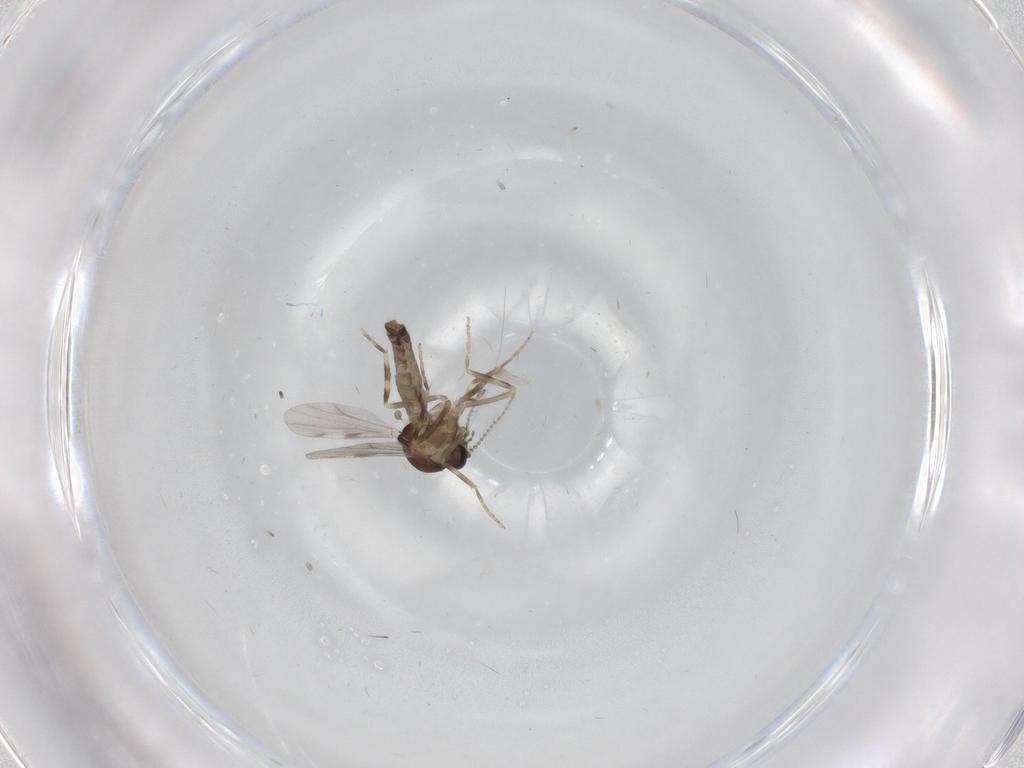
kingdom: Animalia
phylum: Arthropoda
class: Insecta
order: Diptera
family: Ceratopogonidae
